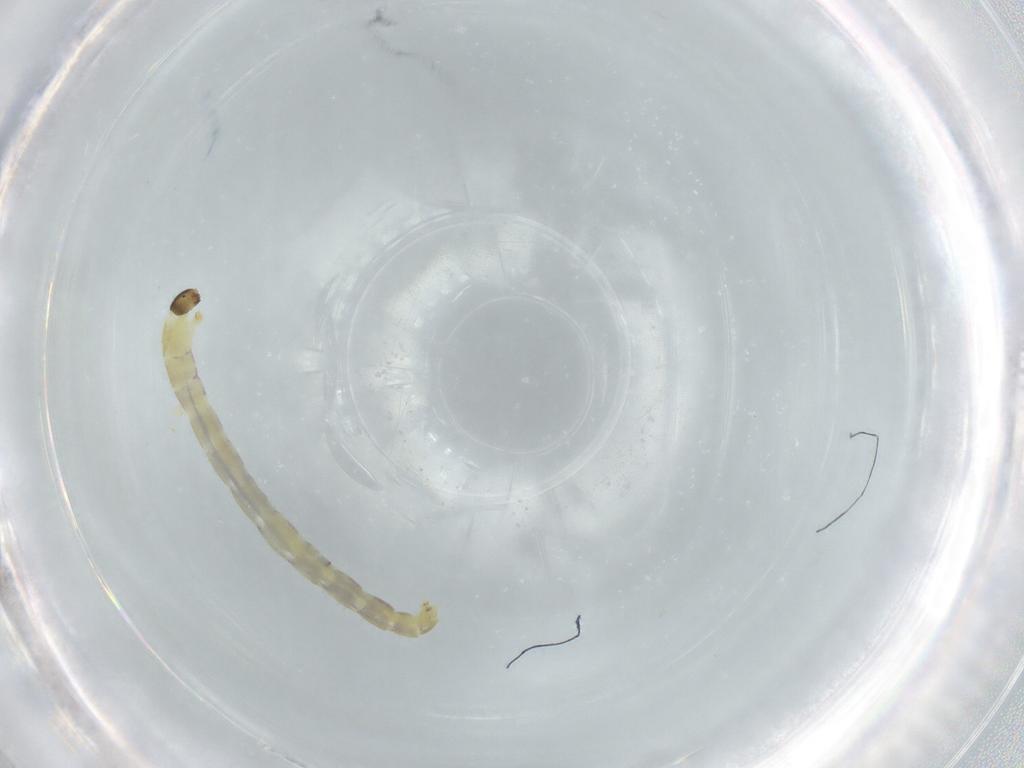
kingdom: Animalia
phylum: Arthropoda
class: Insecta
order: Diptera
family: Chironomidae
